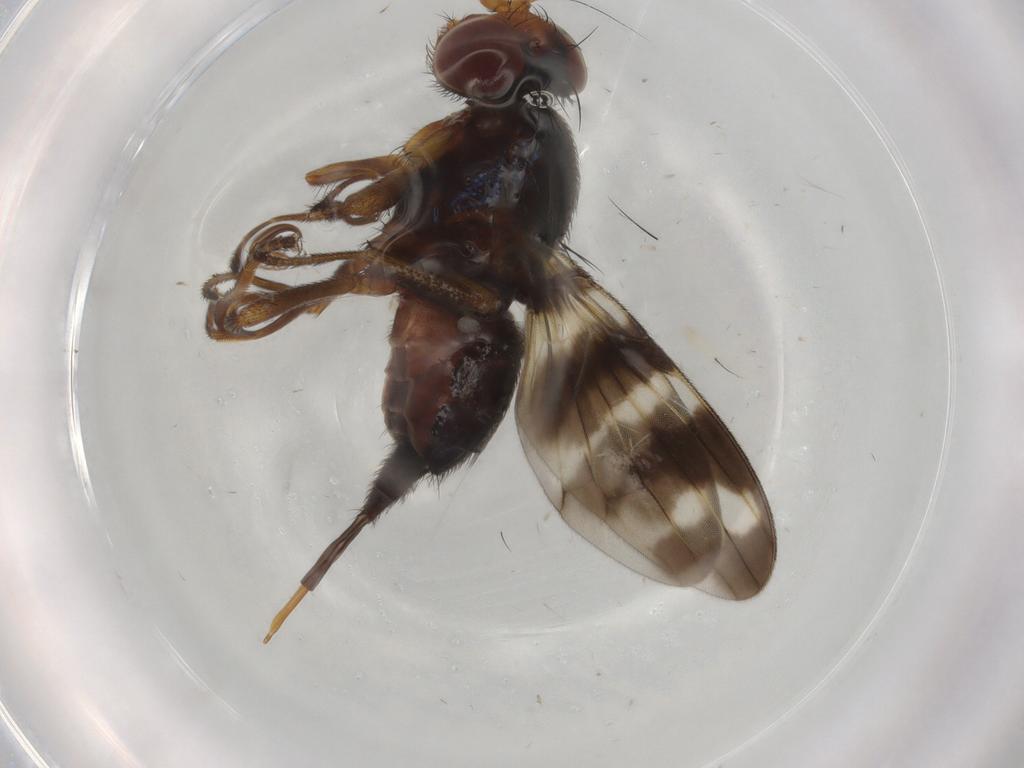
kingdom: Animalia
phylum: Arthropoda
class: Insecta
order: Diptera
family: Ulidiidae
